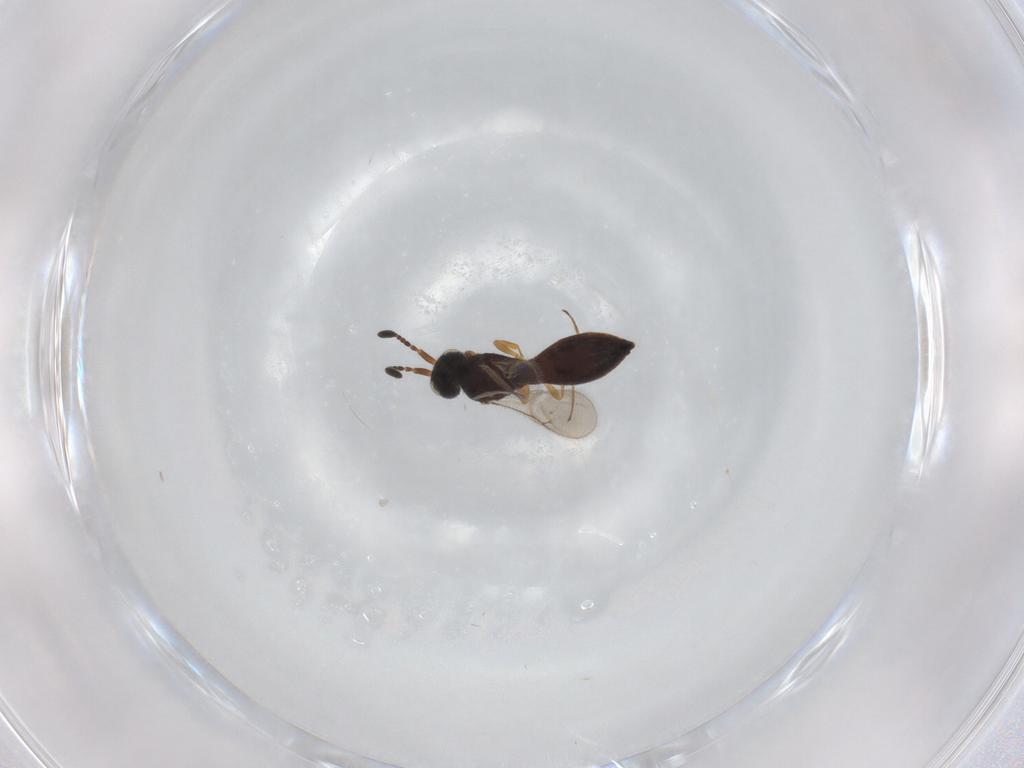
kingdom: Animalia
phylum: Arthropoda
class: Insecta
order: Hymenoptera
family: Scelionidae
